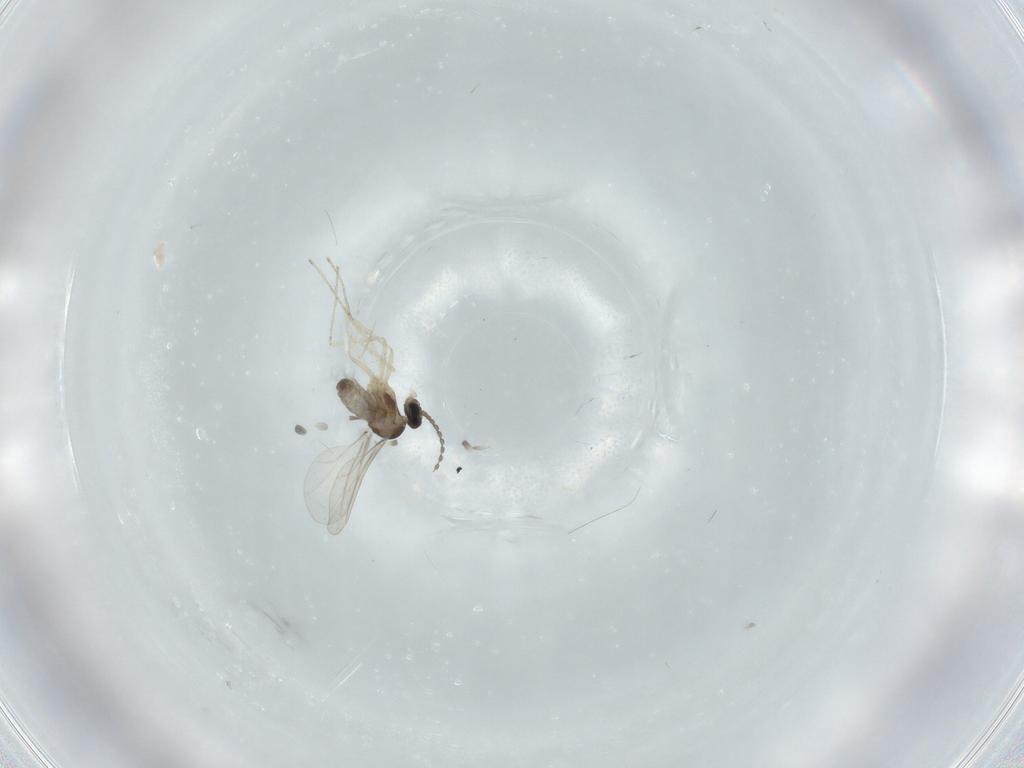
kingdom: Animalia
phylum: Arthropoda
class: Insecta
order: Diptera
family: Cecidomyiidae
